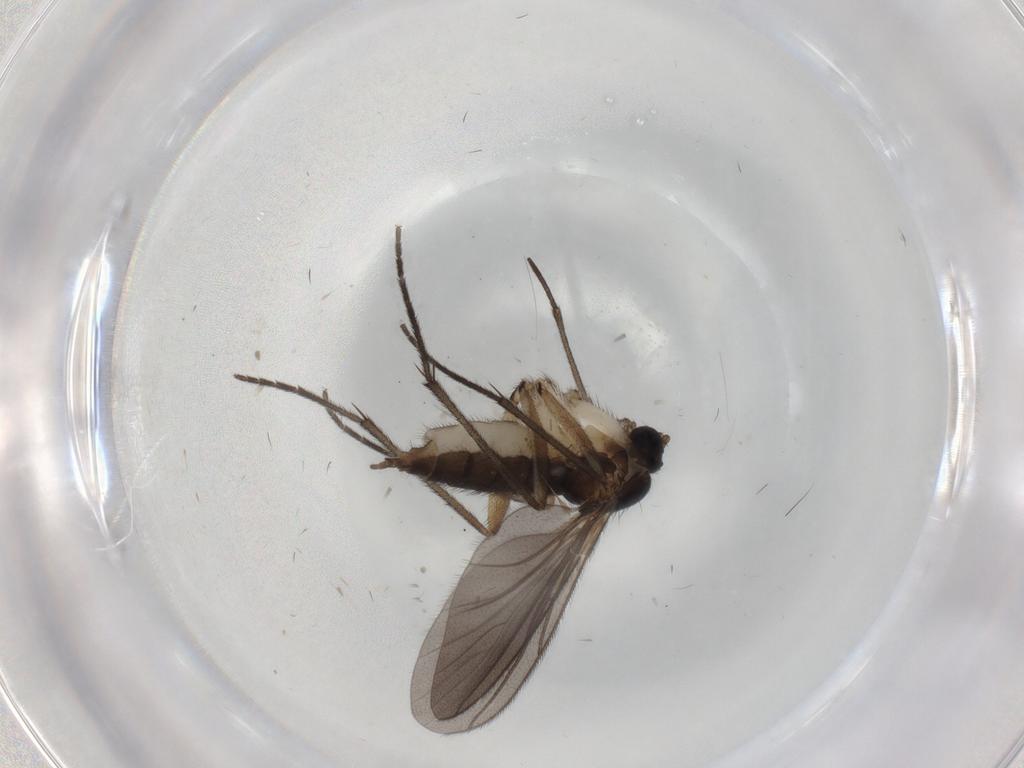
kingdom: Animalia
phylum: Arthropoda
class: Insecta
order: Diptera
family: Sciaridae
